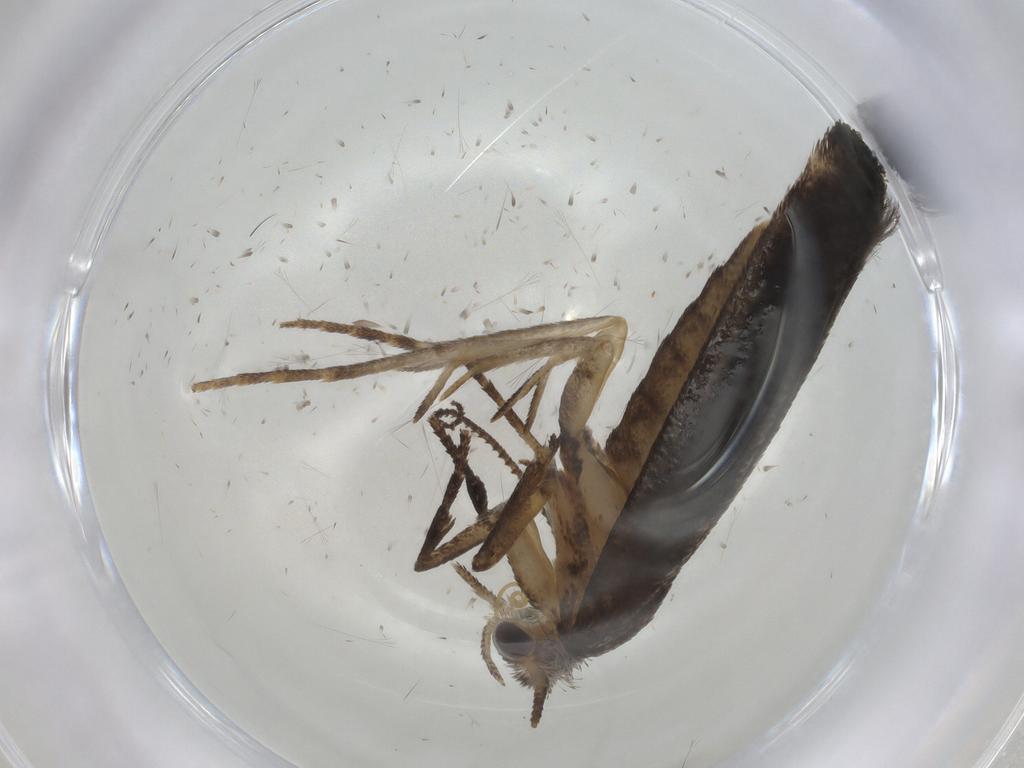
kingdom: Animalia
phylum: Arthropoda
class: Insecta
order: Lepidoptera
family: Plutellidae
